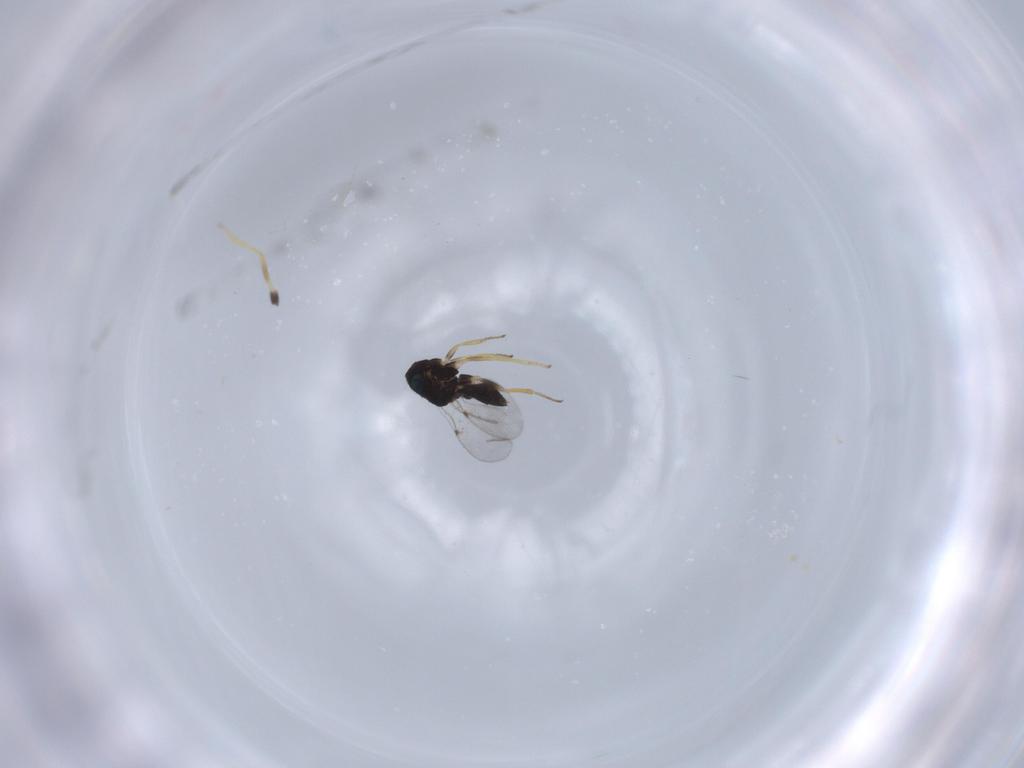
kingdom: Animalia
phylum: Arthropoda
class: Insecta
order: Hymenoptera
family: Encyrtidae
